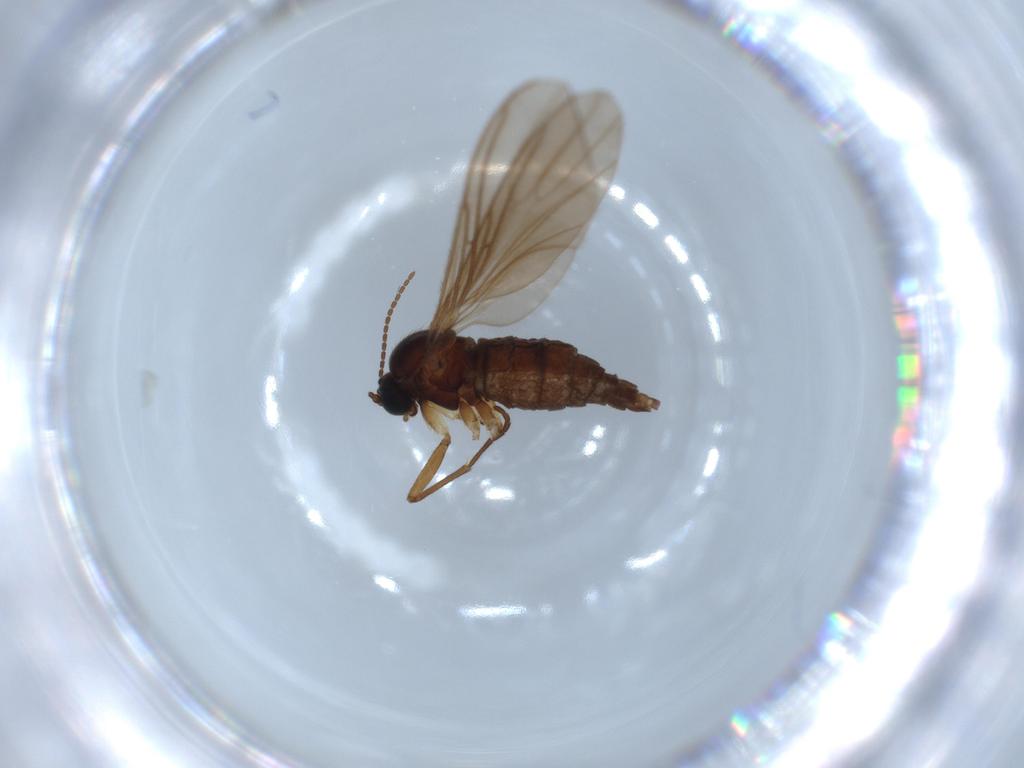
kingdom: Animalia
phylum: Arthropoda
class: Insecta
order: Diptera
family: Sciaridae
